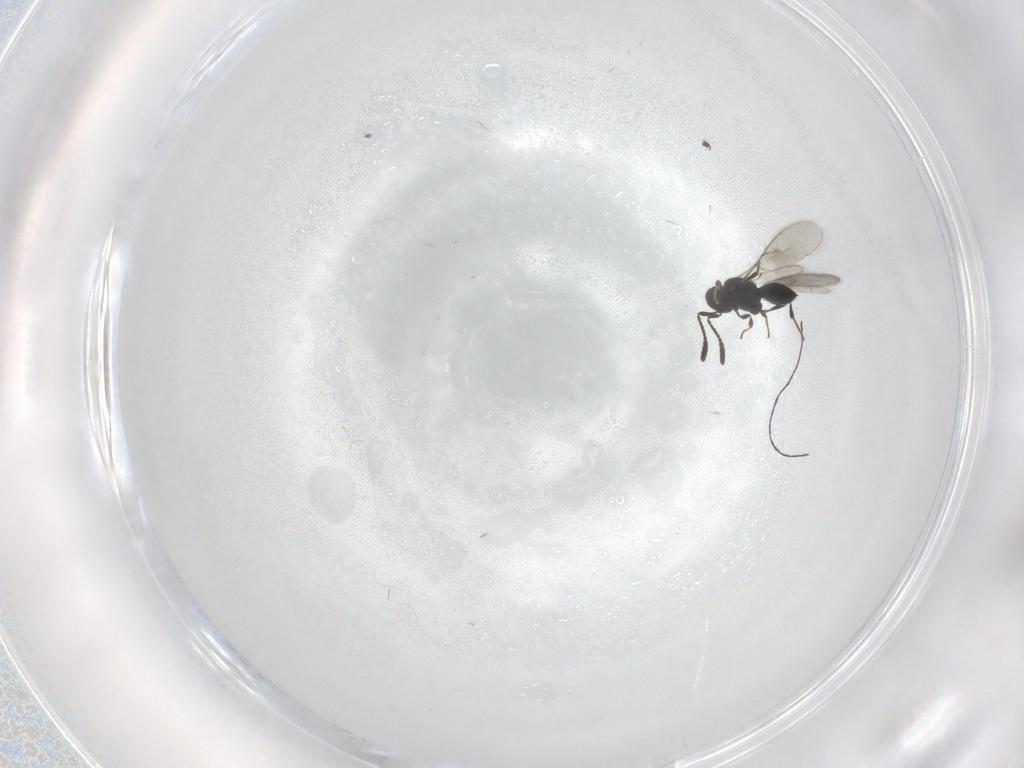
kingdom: Animalia
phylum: Arthropoda
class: Insecta
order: Hymenoptera
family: Scelionidae
